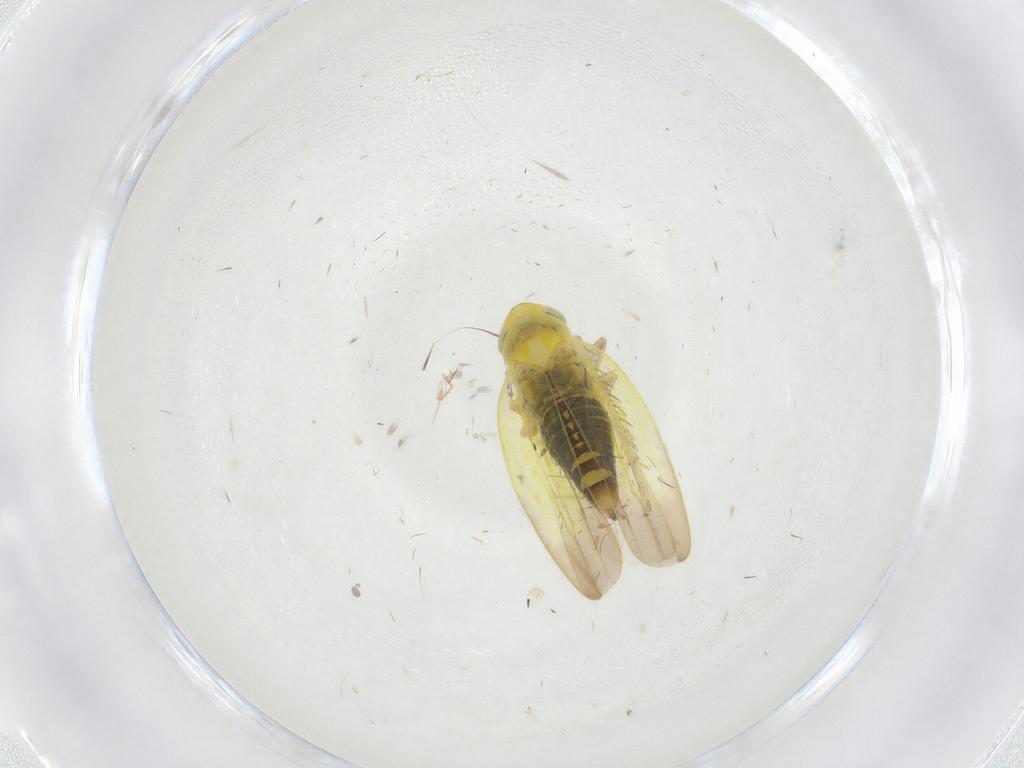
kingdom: Animalia
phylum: Arthropoda
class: Insecta
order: Hemiptera
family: Cicadellidae
